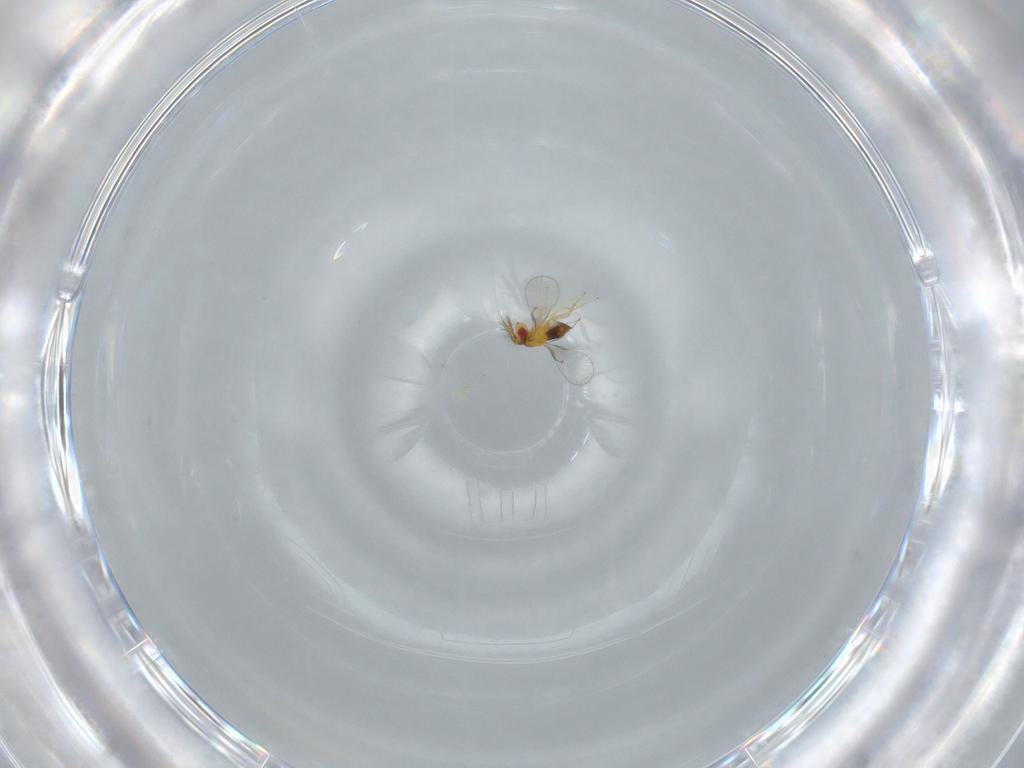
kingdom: Animalia
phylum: Arthropoda
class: Insecta
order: Hymenoptera
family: Trichogrammatidae
